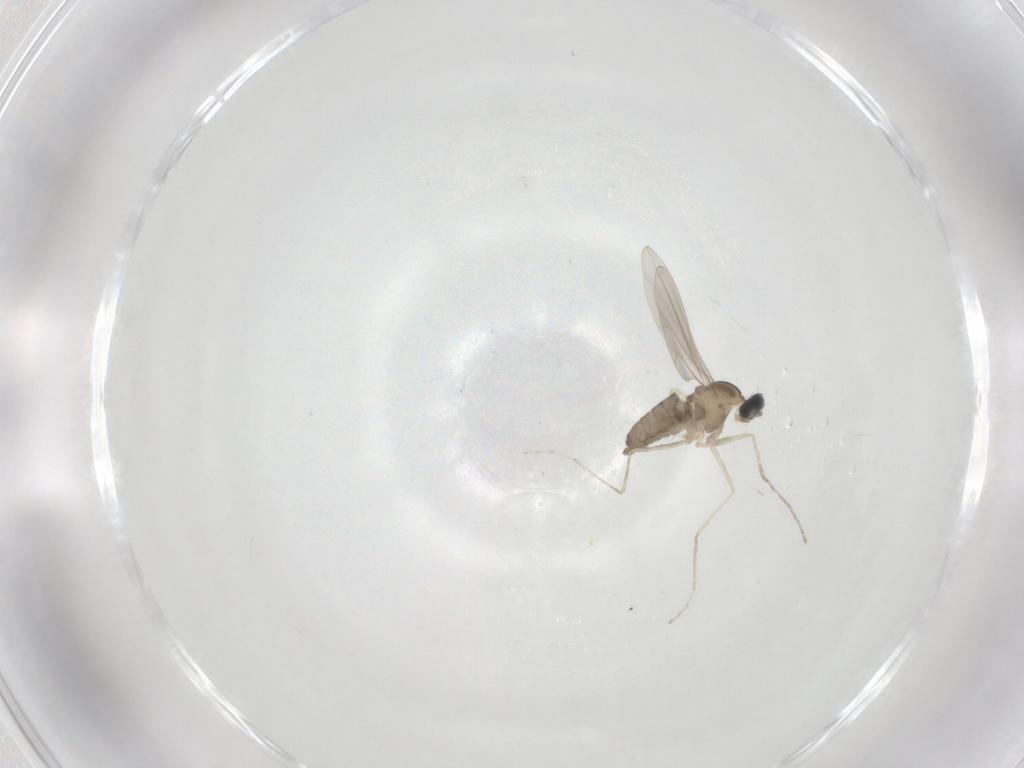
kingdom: Animalia
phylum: Arthropoda
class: Insecta
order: Diptera
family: Cecidomyiidae
